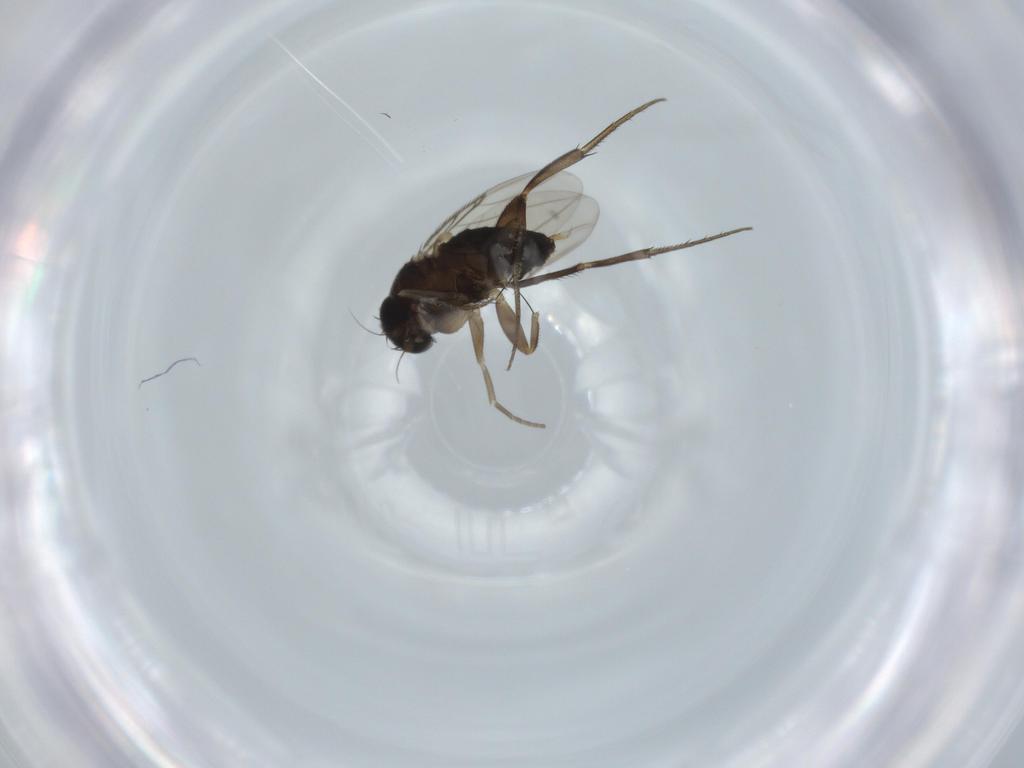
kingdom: Animalia
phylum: Arthropoda
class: Insecta
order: Diptera
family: Phoridae
